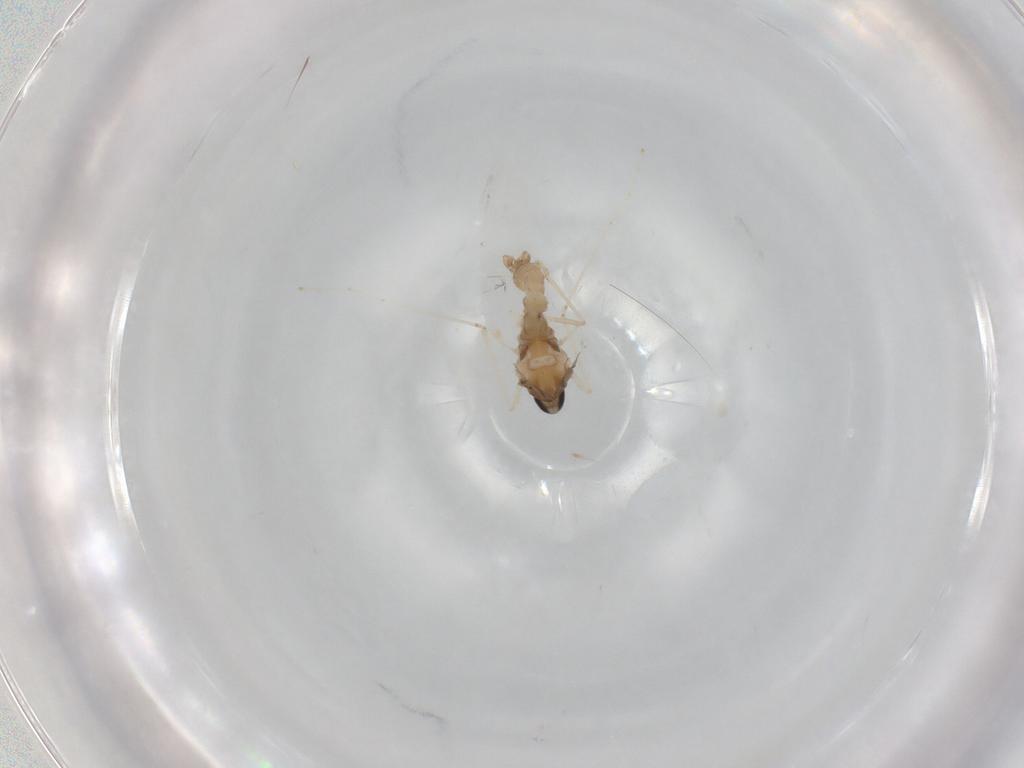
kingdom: Animalia
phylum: Arthropoda
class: Insecta
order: Diptera
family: Cecidomyiidae
